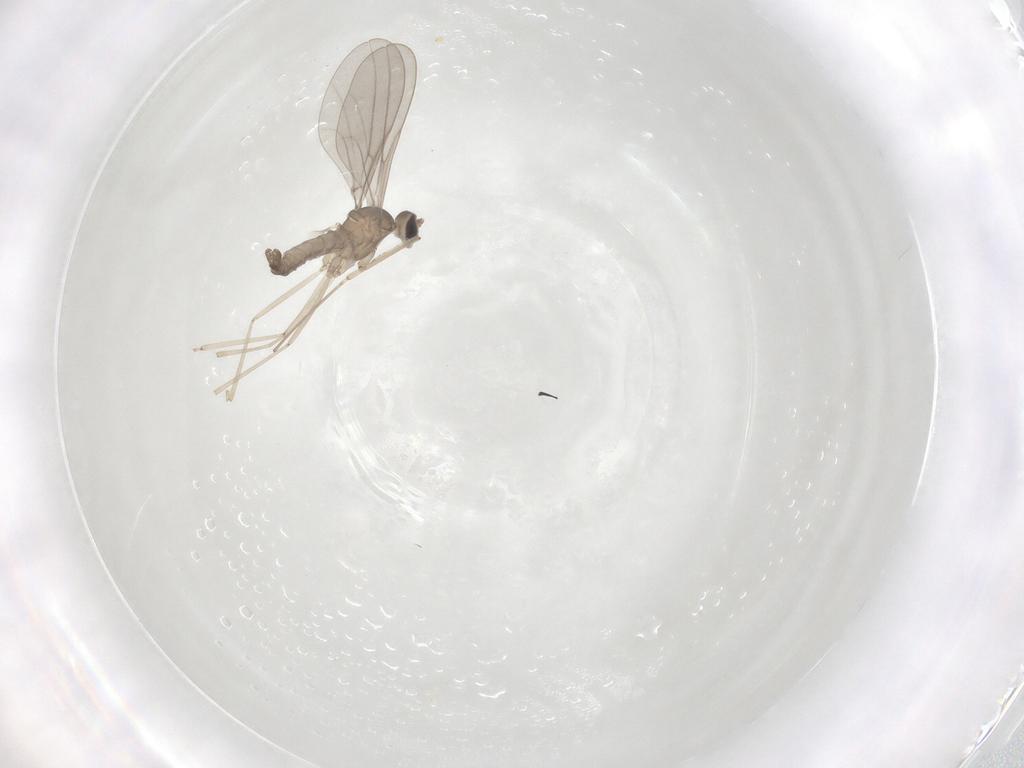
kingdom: Animalia
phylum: Arthropoda
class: Insecta
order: Diptera
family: Cecidomyiidae
